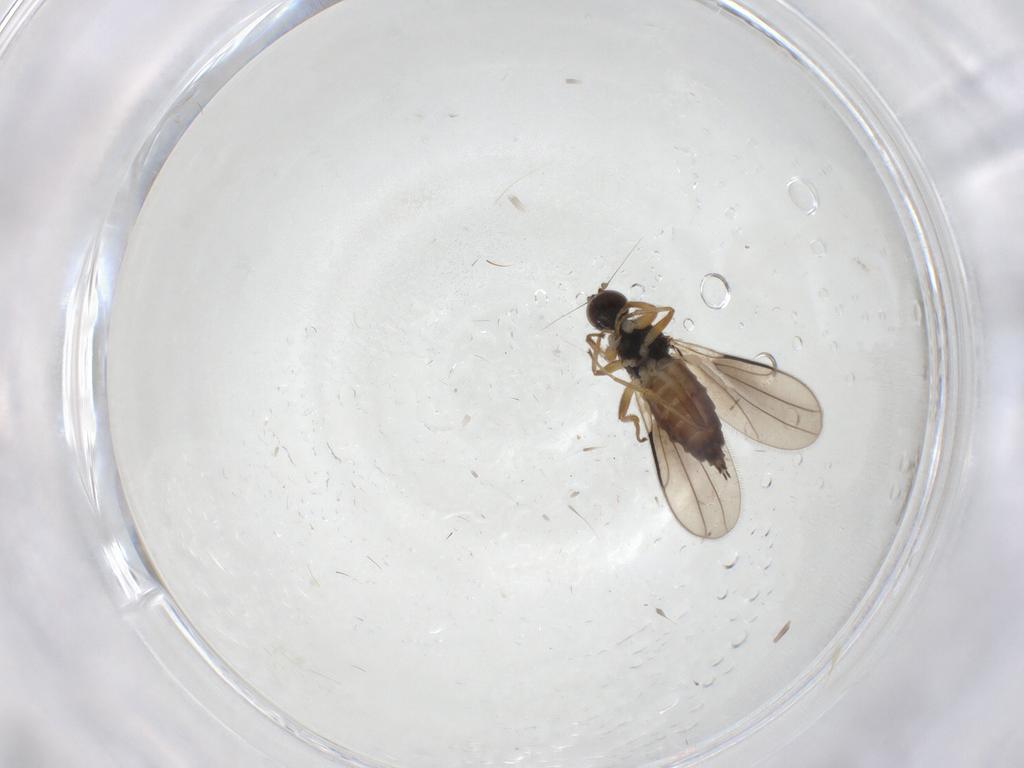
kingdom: Animalia
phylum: Arthropoda
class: Insecta
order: Diptera
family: Hybotidae
